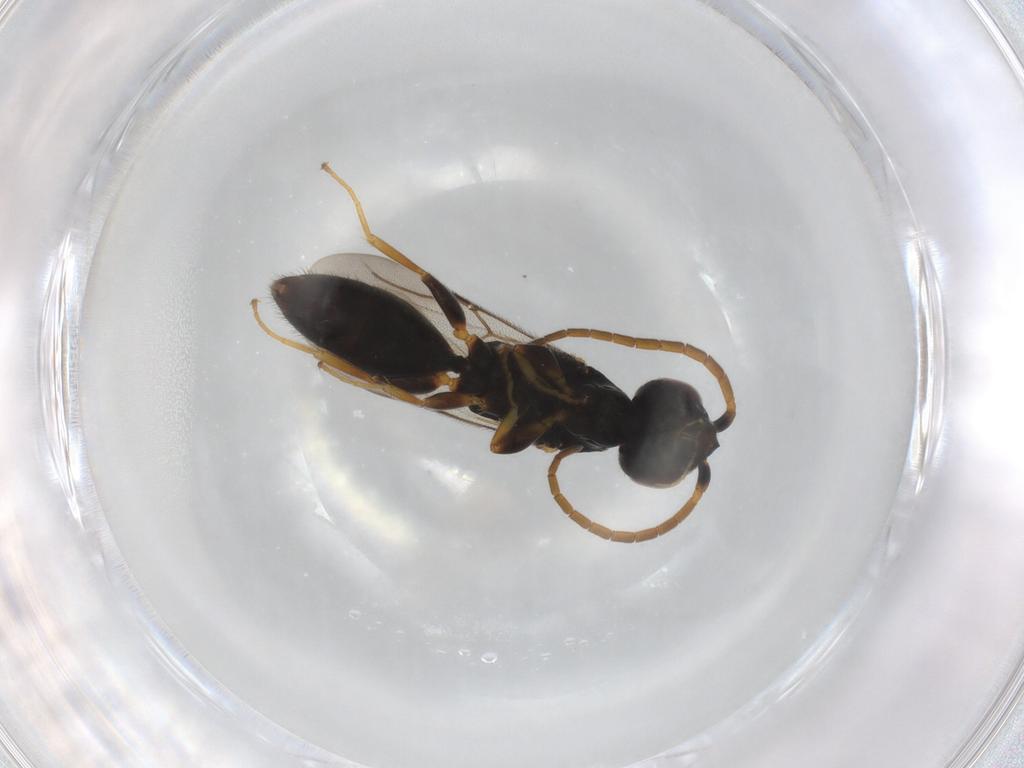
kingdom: Animalia
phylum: Arthropoda
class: Insecta
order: Hymenoptera
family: Bethylidae
